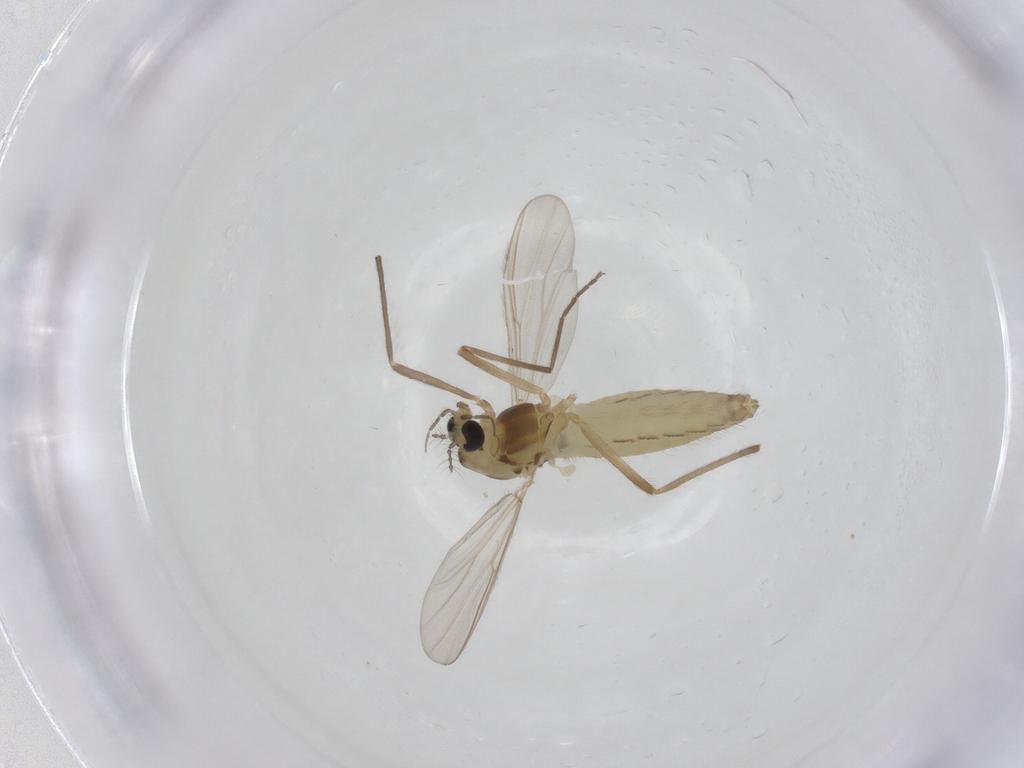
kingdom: Animalia
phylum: Arthropoda
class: Insecta
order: Diptera
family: Chironomidae
